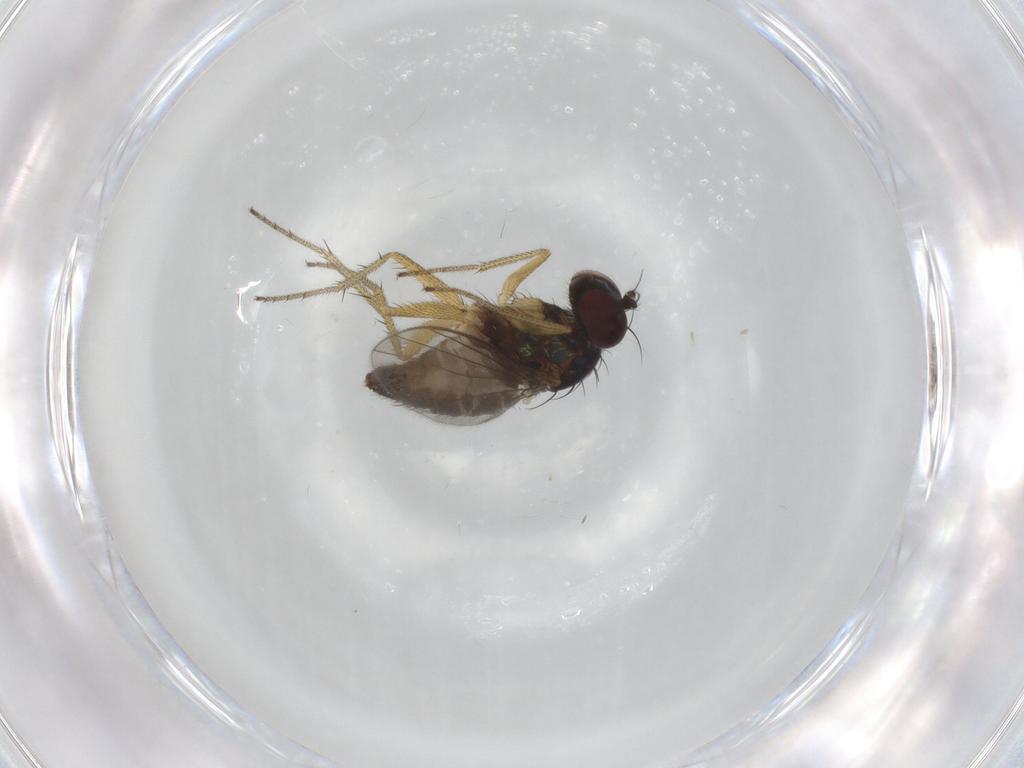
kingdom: Animalia
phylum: Arthropoda
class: Insecta
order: Diptera
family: Dolichopodidae
